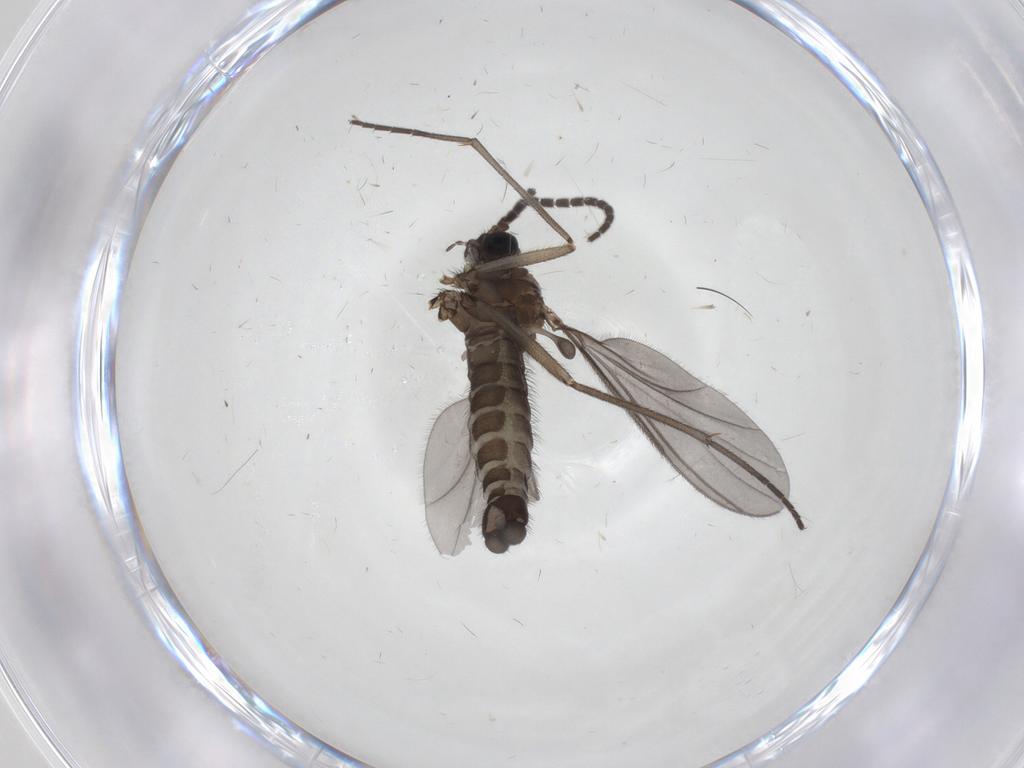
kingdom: Animalia
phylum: Arthropoda
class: Insecta
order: Diptera
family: Sciaridae
